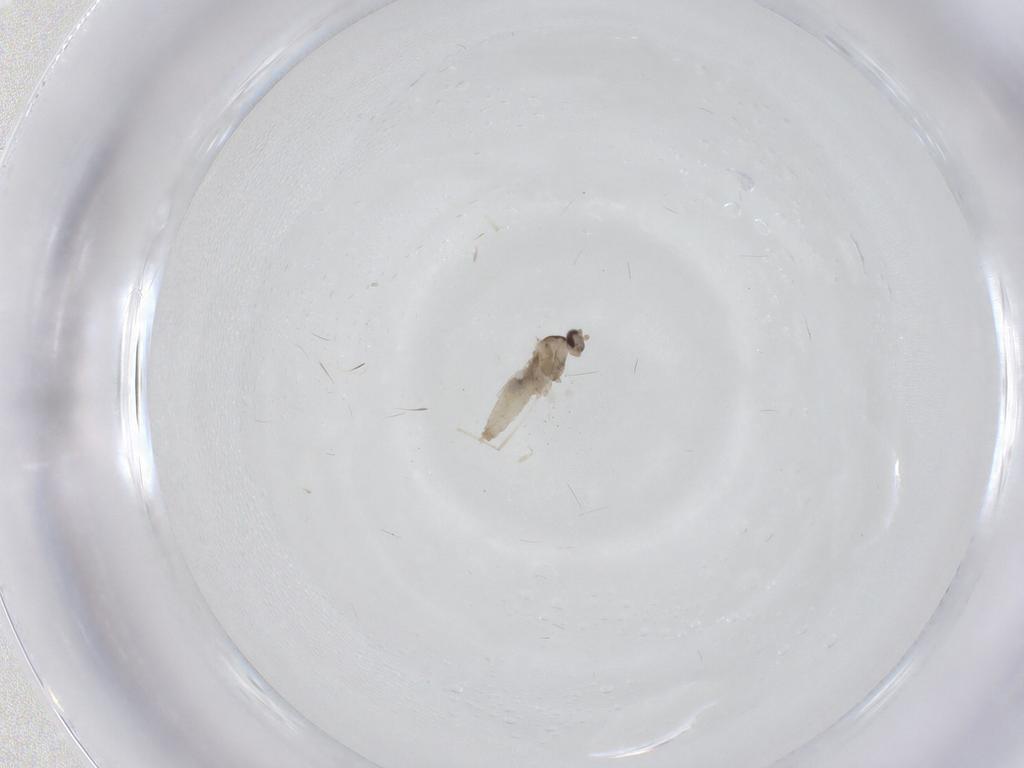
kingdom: Animalia
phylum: Arthropoda
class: Insecta
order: Diptera
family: Cecidomyiidae
